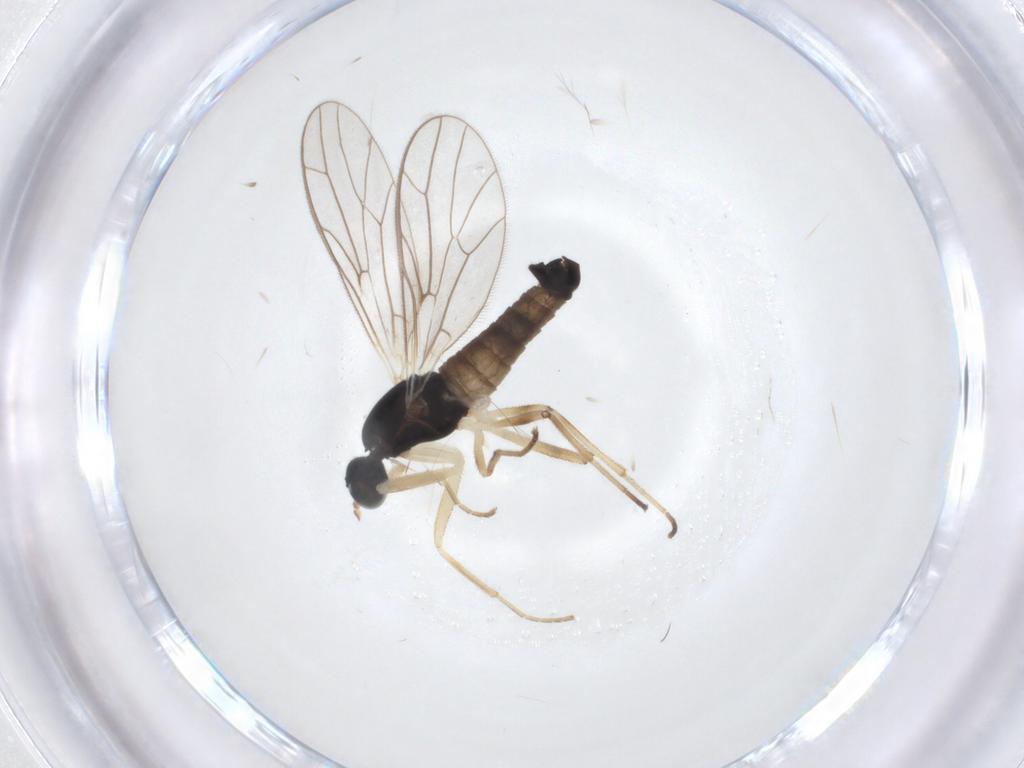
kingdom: Animalia
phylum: Arthropoda
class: Insecta
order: Diptera
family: Empididae
